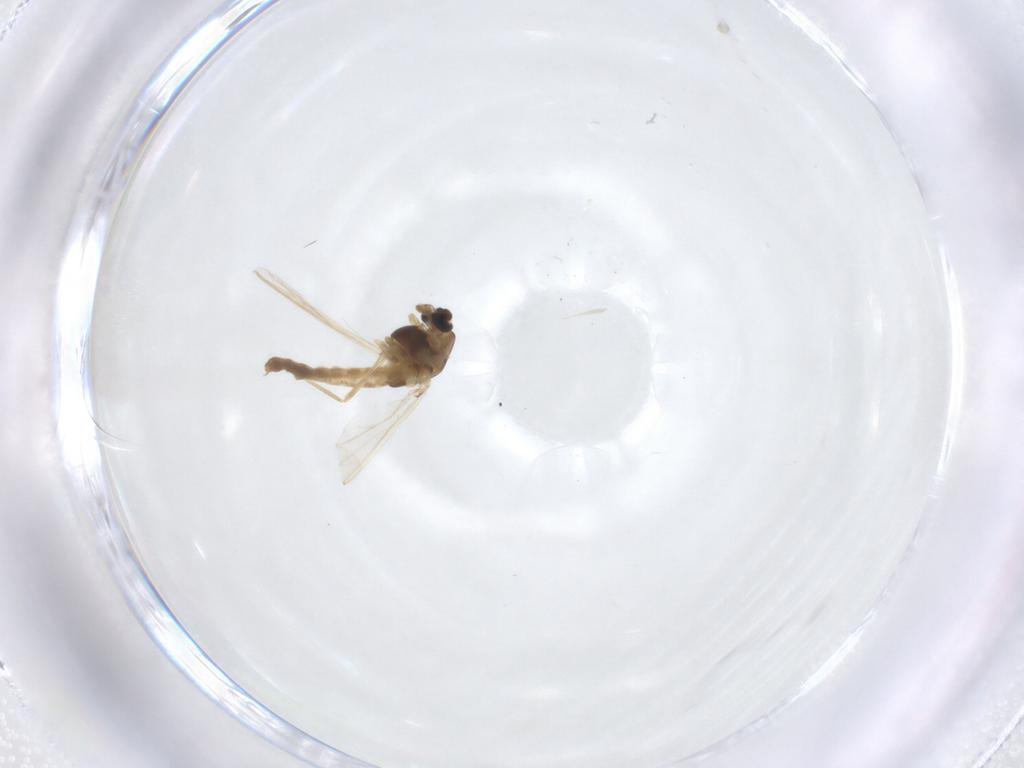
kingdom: Animalia
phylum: Arthropoda
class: Insecta
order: Diptera
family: Chironomidae
